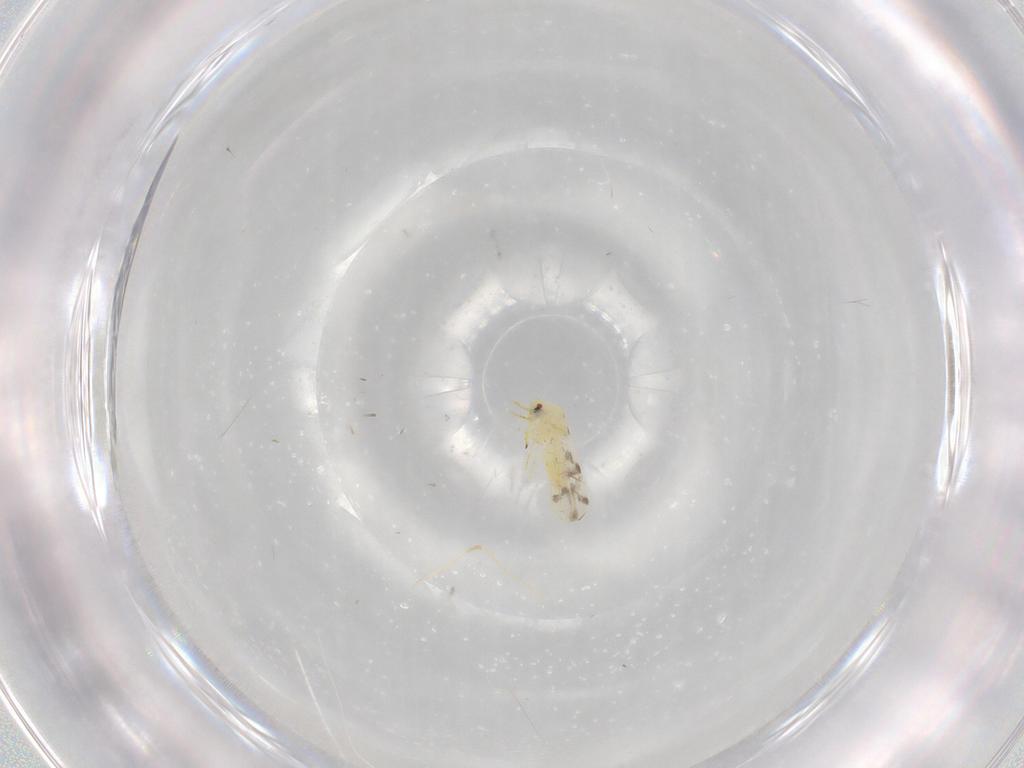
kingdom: Animalia
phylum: Arthropoda
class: Insecta
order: Hemiptera
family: Aleyrodidae
